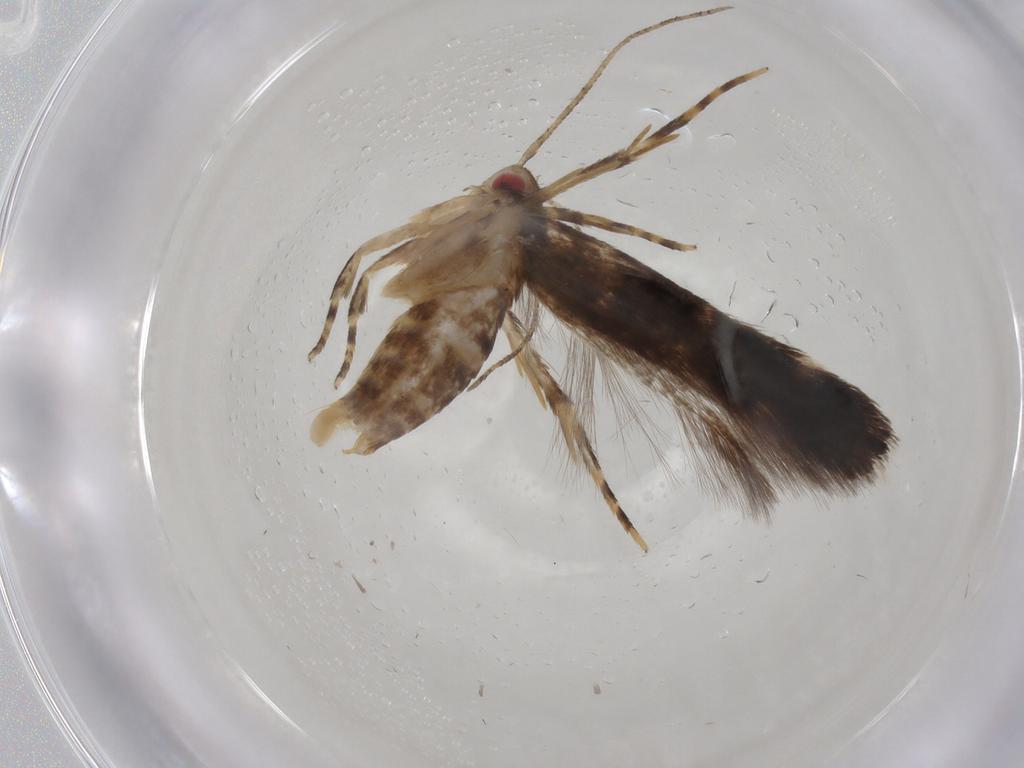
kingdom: Animalia
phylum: Arthropoda
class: Insecta
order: Lepidoptera
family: Cosmopterigidae
